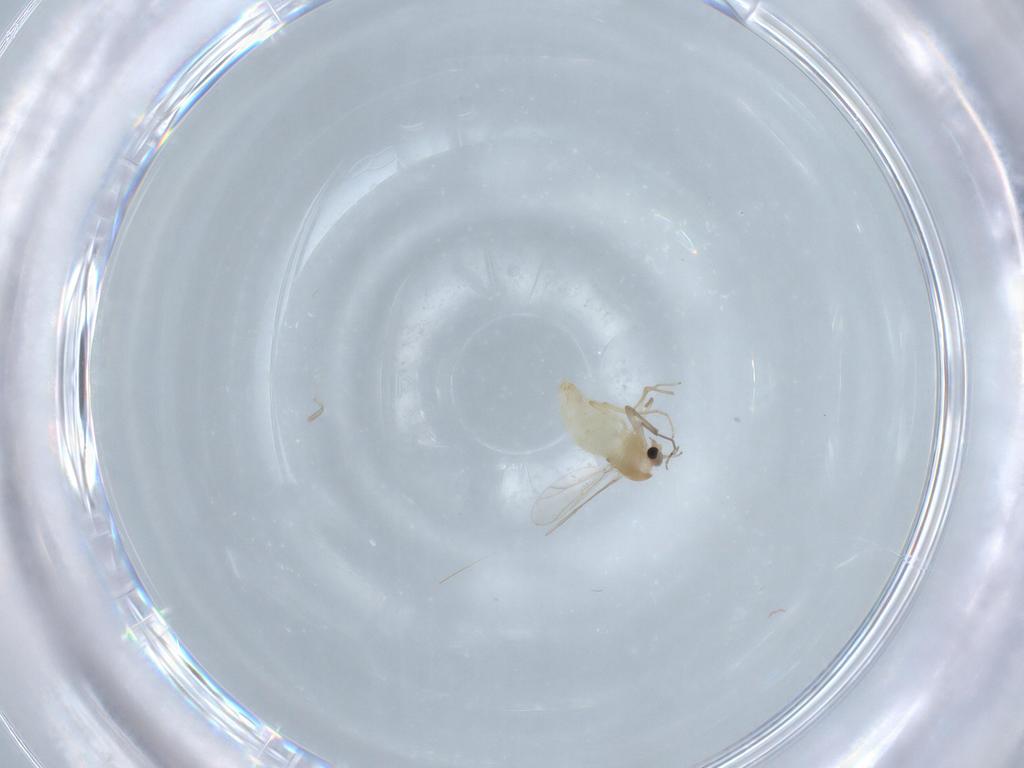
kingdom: Animalia
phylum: Arthropoda
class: Insecta
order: Diptera
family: Chironomidae
